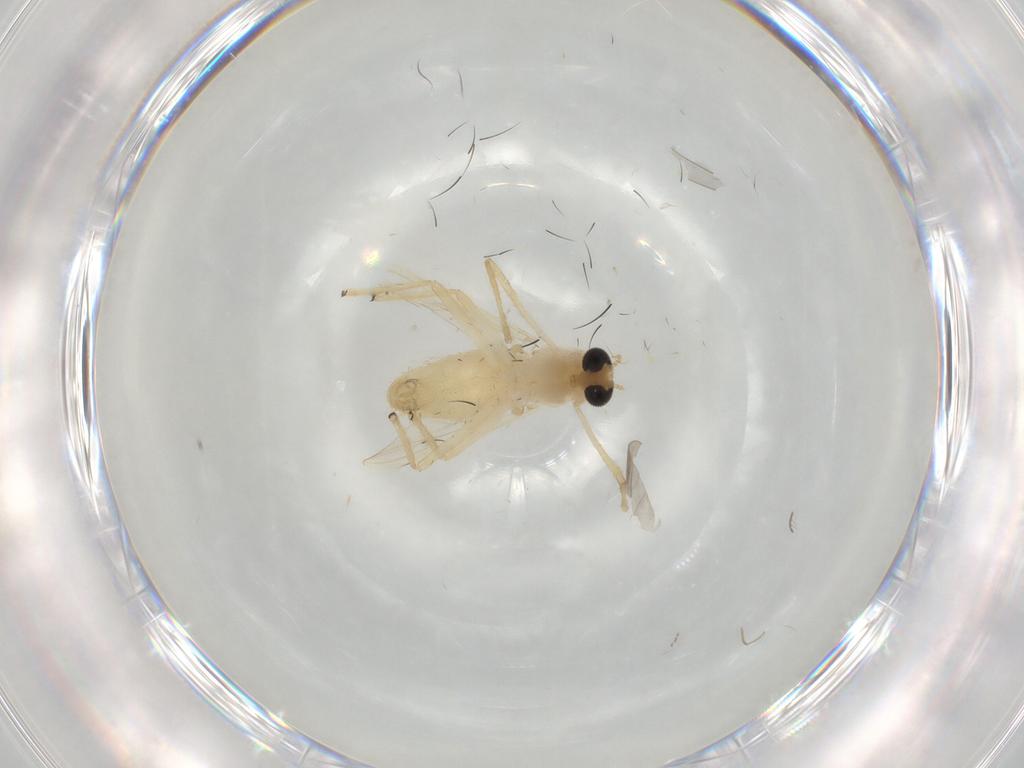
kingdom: Animalia
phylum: Arthropoda
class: Insecta
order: Diptera
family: Chironomidae
